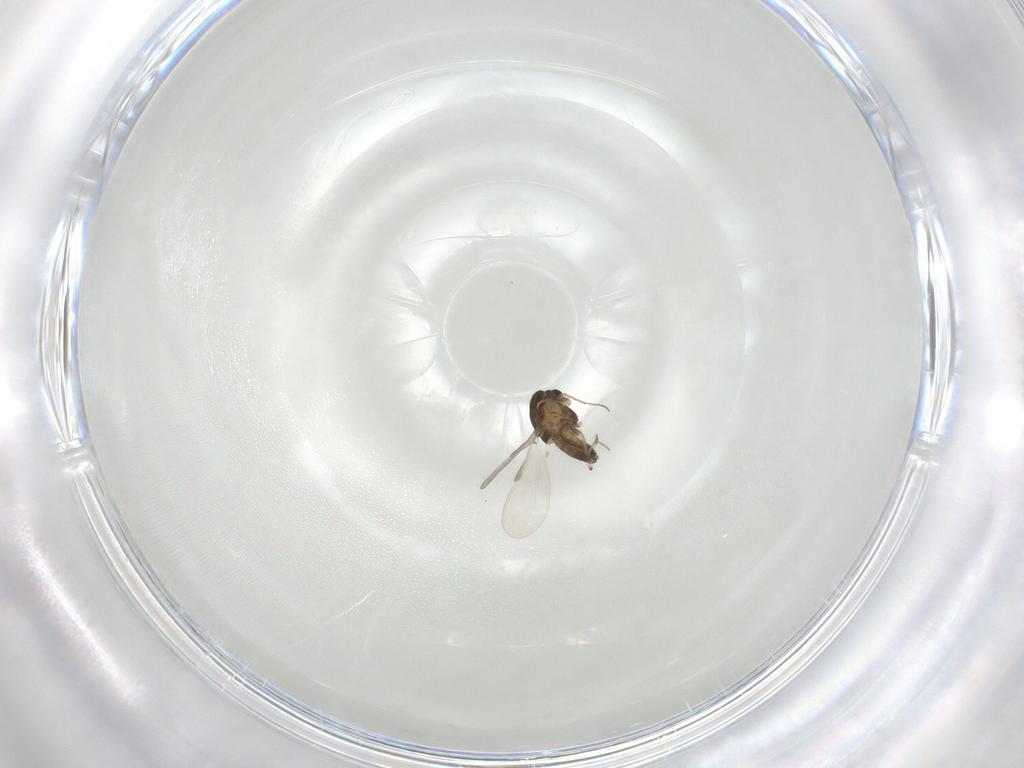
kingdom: Animalia
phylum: Arthropoda
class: Insecta
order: Diptera
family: Chironomidae
